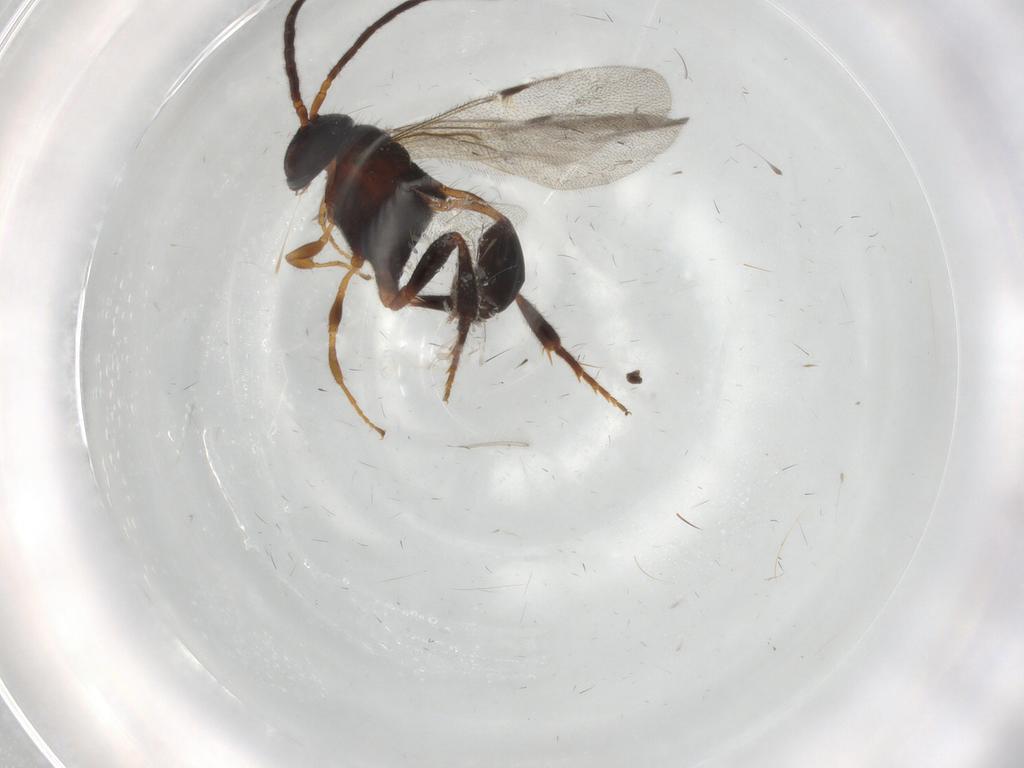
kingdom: Animalia
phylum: Arthropoda
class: Insecta
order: Hymenoptera
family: Evaniidae
